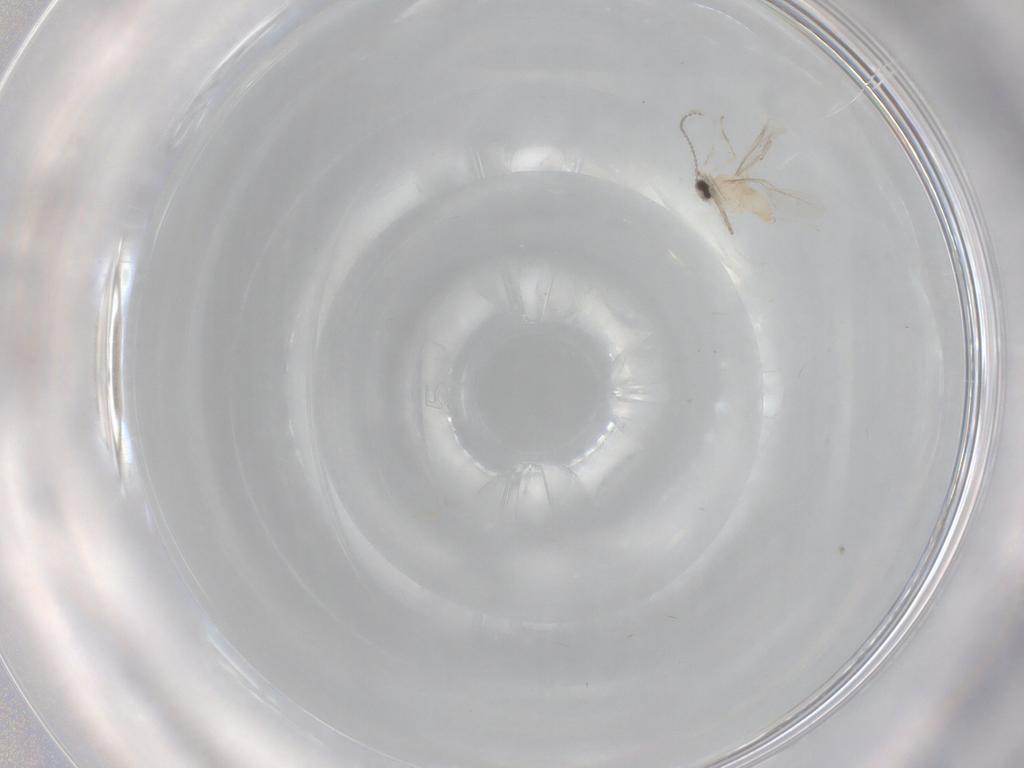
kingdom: Animalia
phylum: Arthropoda
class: Insecta
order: Diptera
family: Cecidomyiidae
